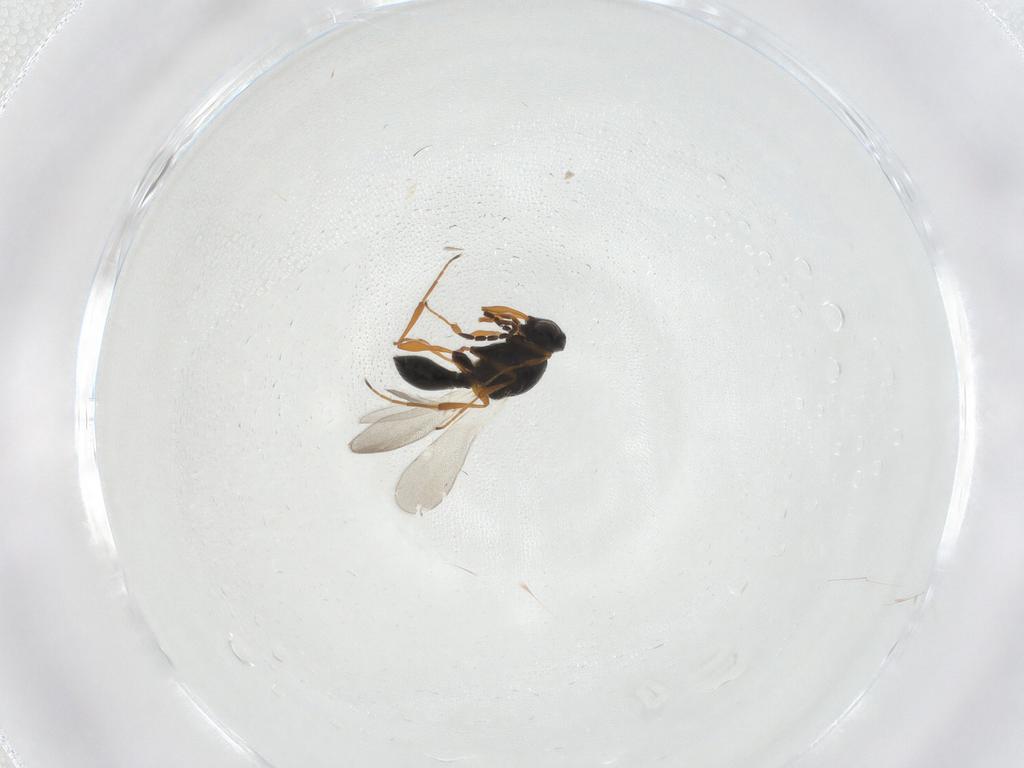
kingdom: Animalia
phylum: Arthropoda
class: Insecta
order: Hymenoptera
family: Platygastridae
